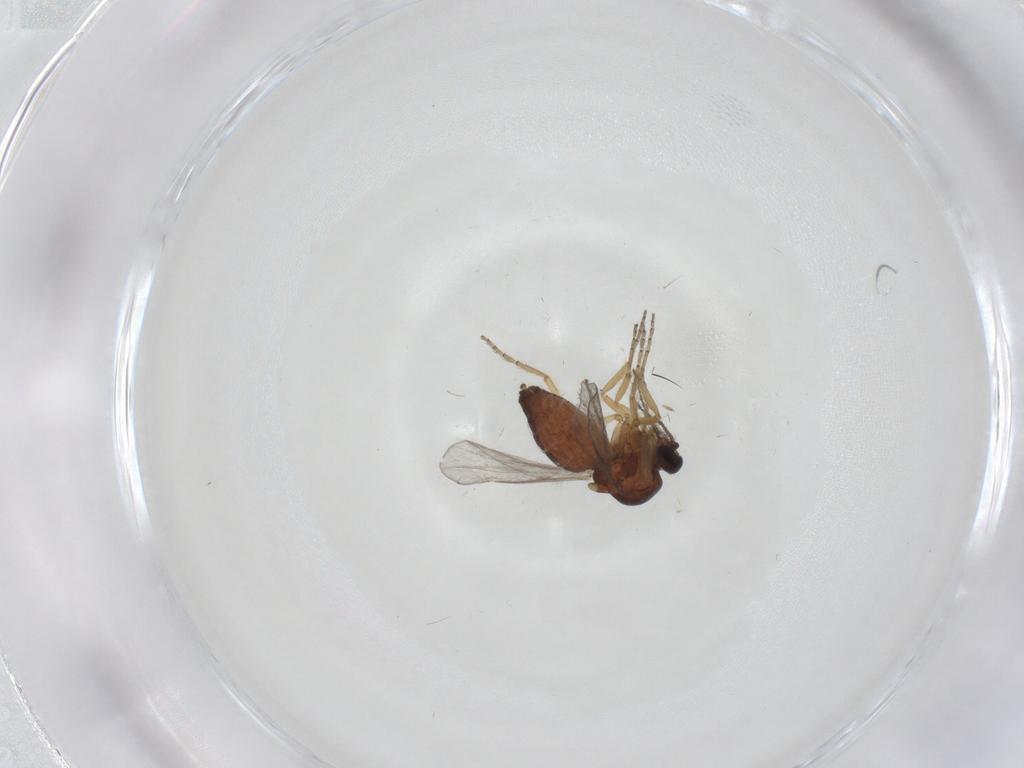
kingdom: Animalia
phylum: Arthropoda
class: Insecta
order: Diptera
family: Ceratopogonidae
